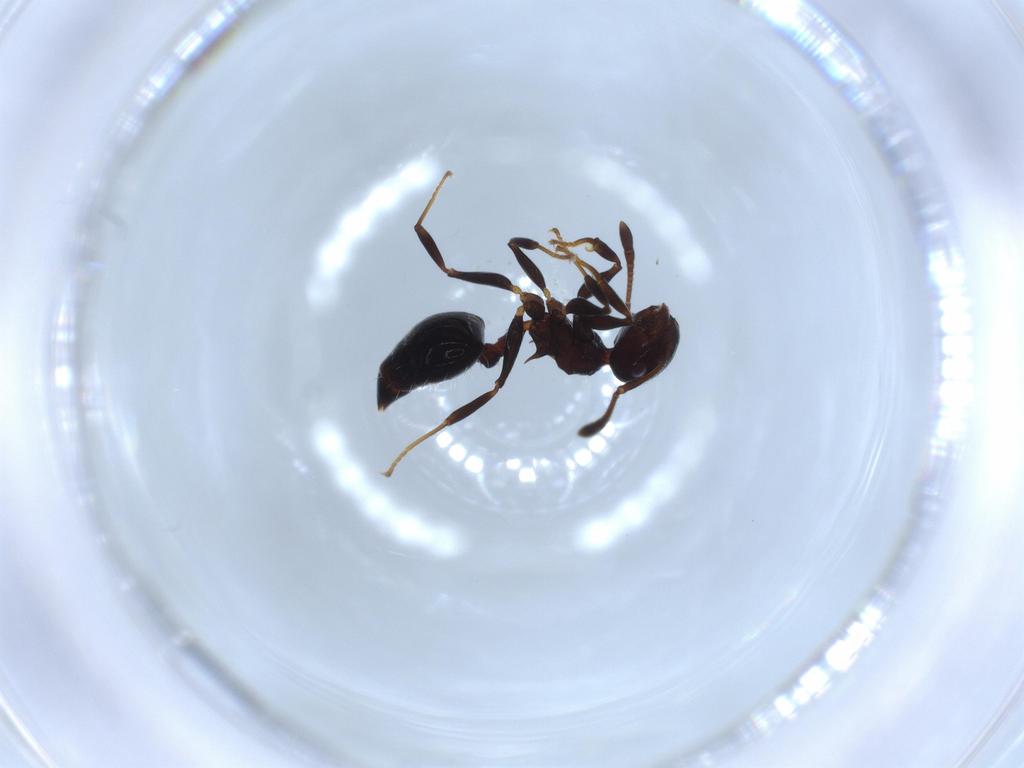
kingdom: Animalia
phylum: Arthropoda
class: Insecta
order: Hymenoptera
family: Formicidae
